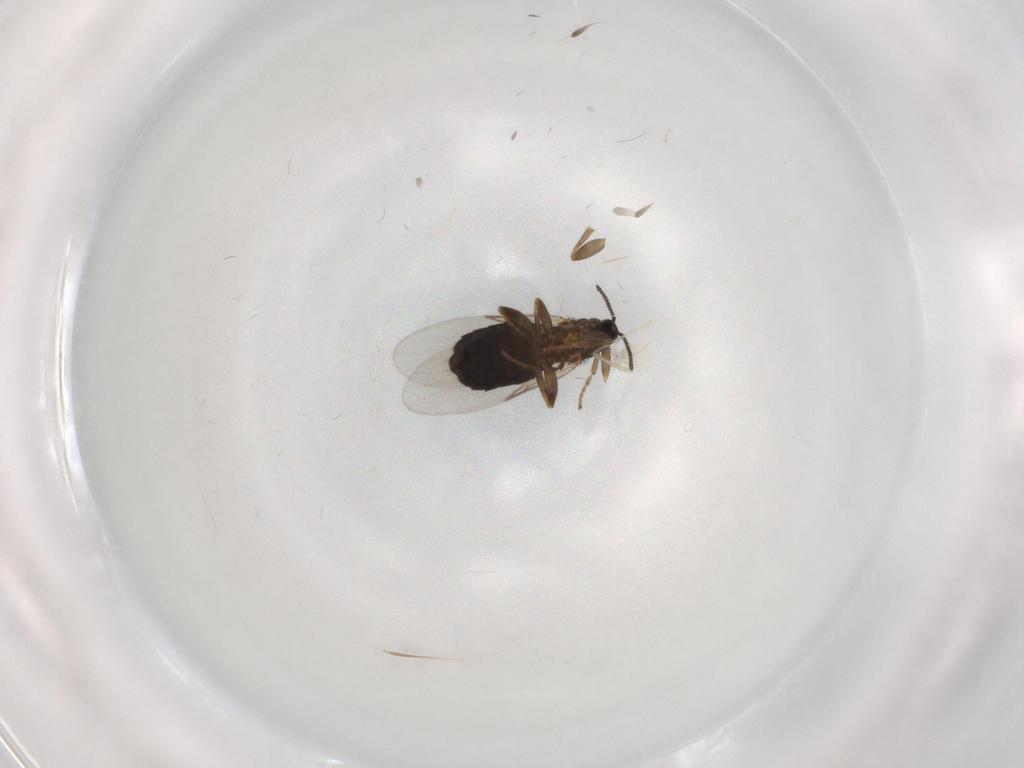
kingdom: Animalia
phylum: Arthropoda
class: Insecta
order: Diptera
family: Scatopsidae
